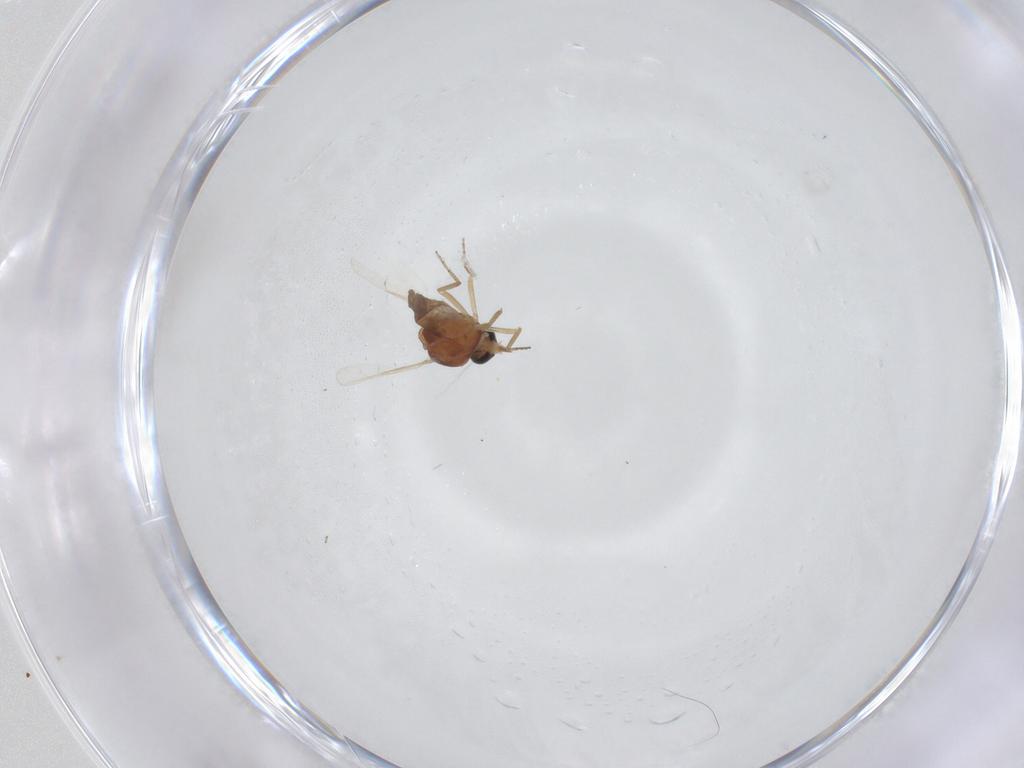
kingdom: Animalia
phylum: Arthropoda
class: Insecta
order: Diptera
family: Ceratopogonidae
